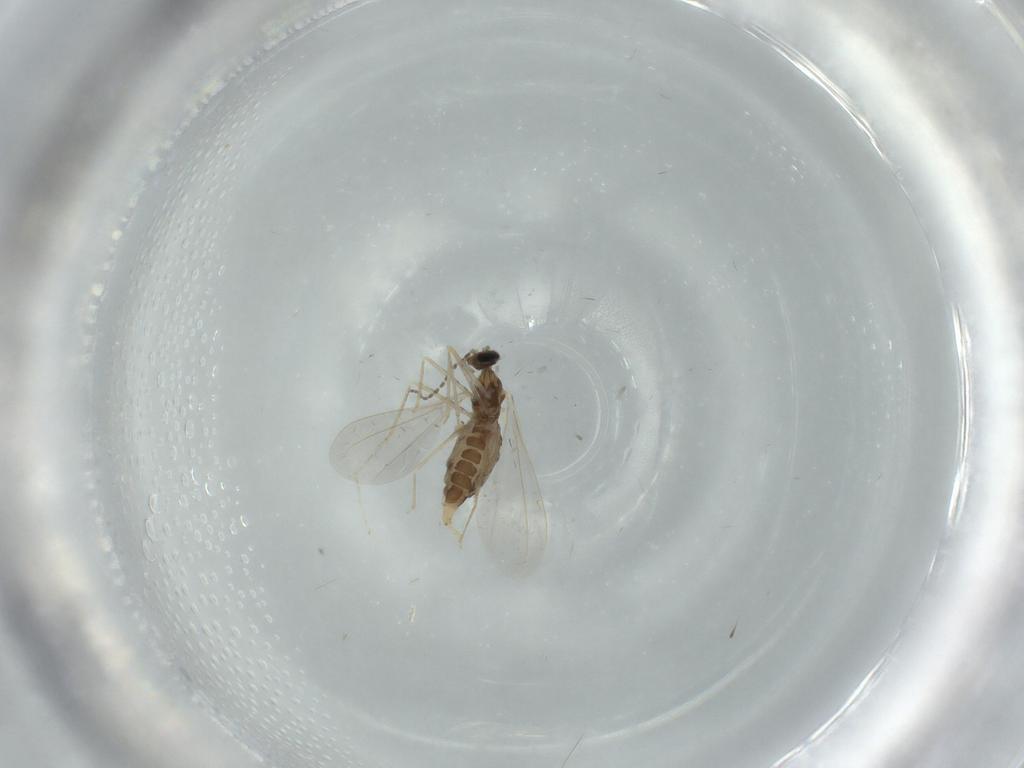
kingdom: Animalia
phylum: Arthropoda
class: Insecta
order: Diptera
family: Cecidomyiidae
